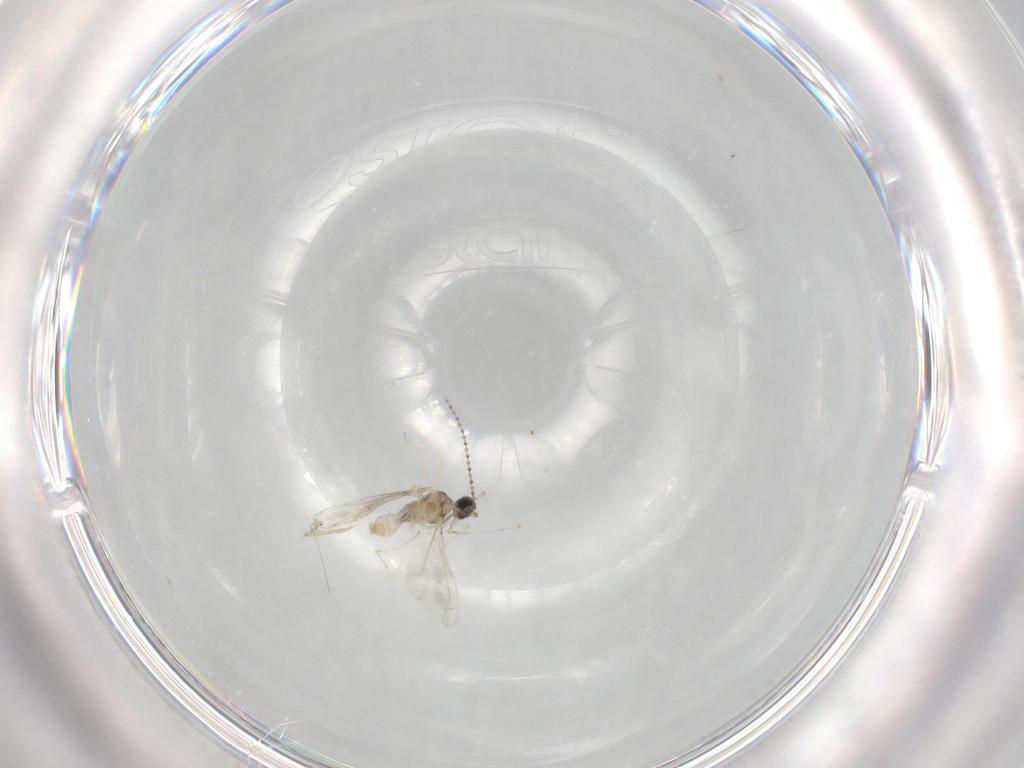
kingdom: Animalia
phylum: Arthropoda
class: Insecta
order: Diptera
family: Cecidomyiidae
